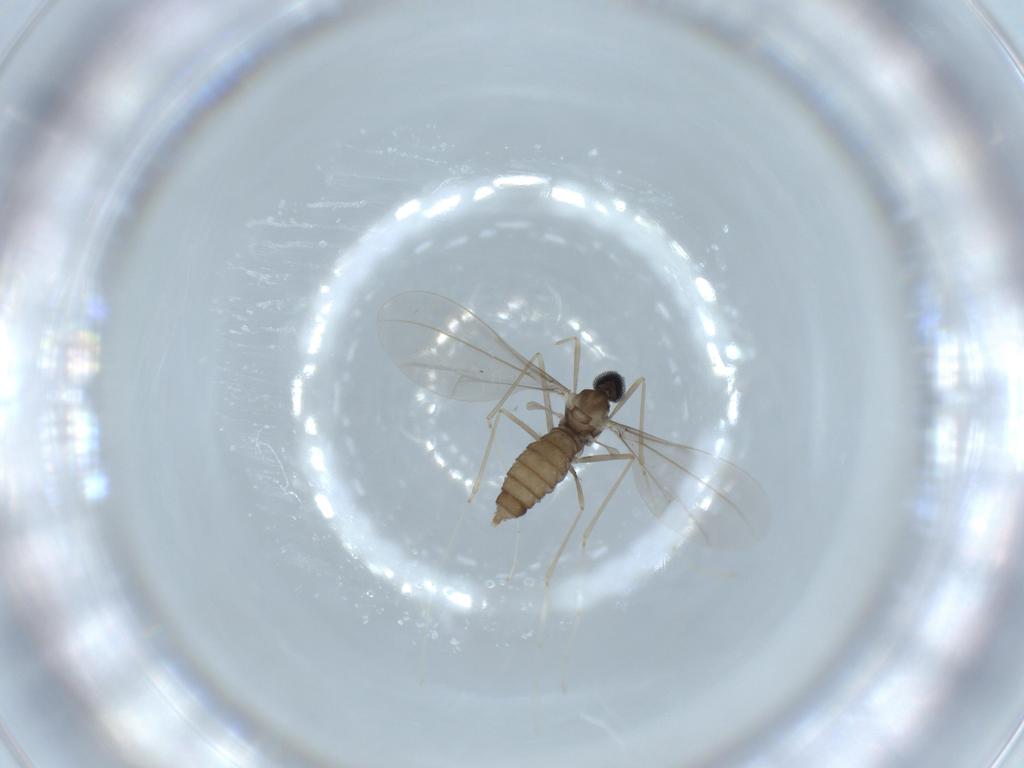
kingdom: Animalia
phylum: Arthropoda
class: Insecta
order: Diptera
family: Cecidomyiidae
